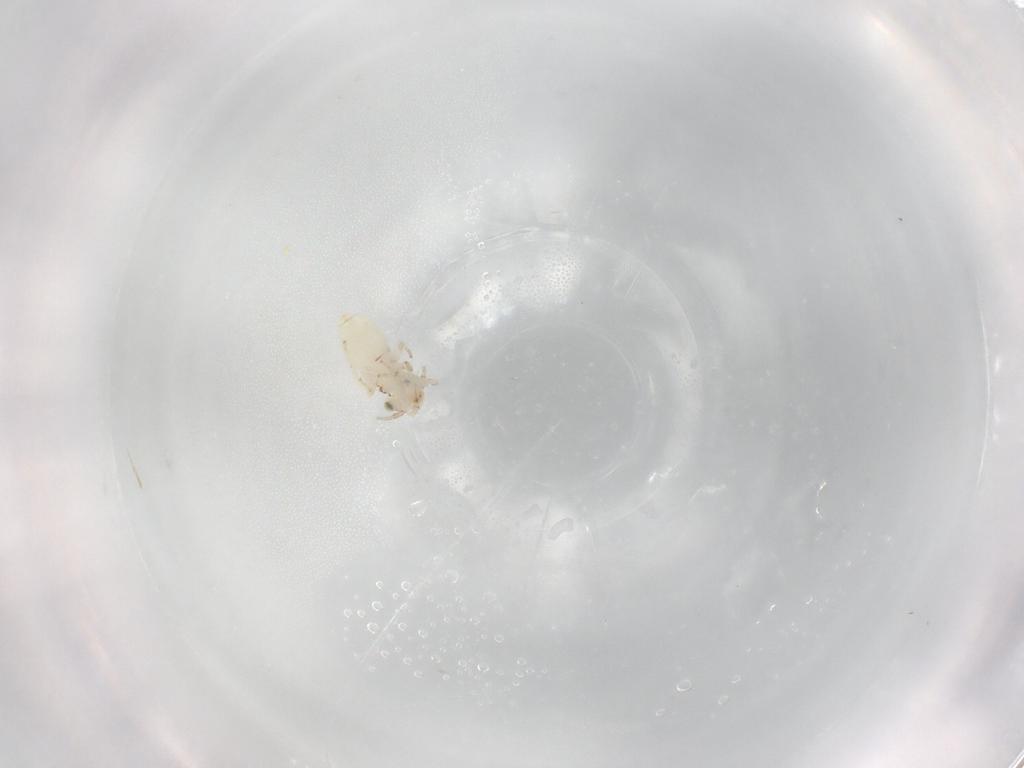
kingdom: Animalia
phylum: Arthropoda
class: Insecta
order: Psocodea
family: Lepidopsocidae
